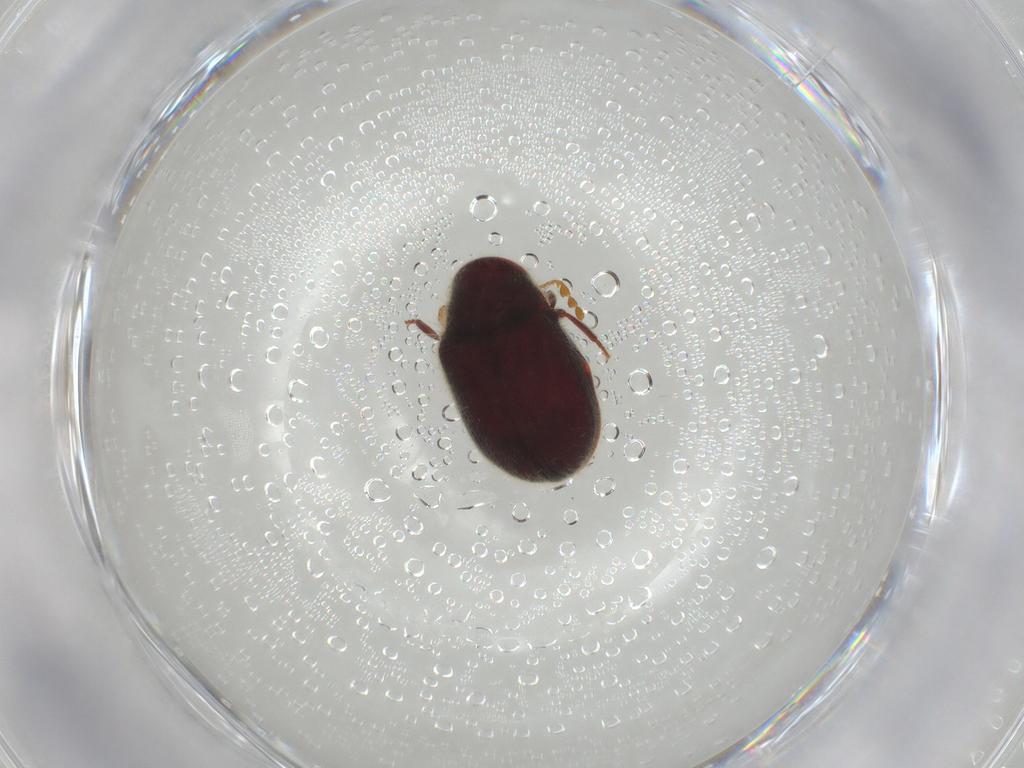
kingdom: Animalia
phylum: Arthropoda
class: Insecta
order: Coleoptera
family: Ptinidae
